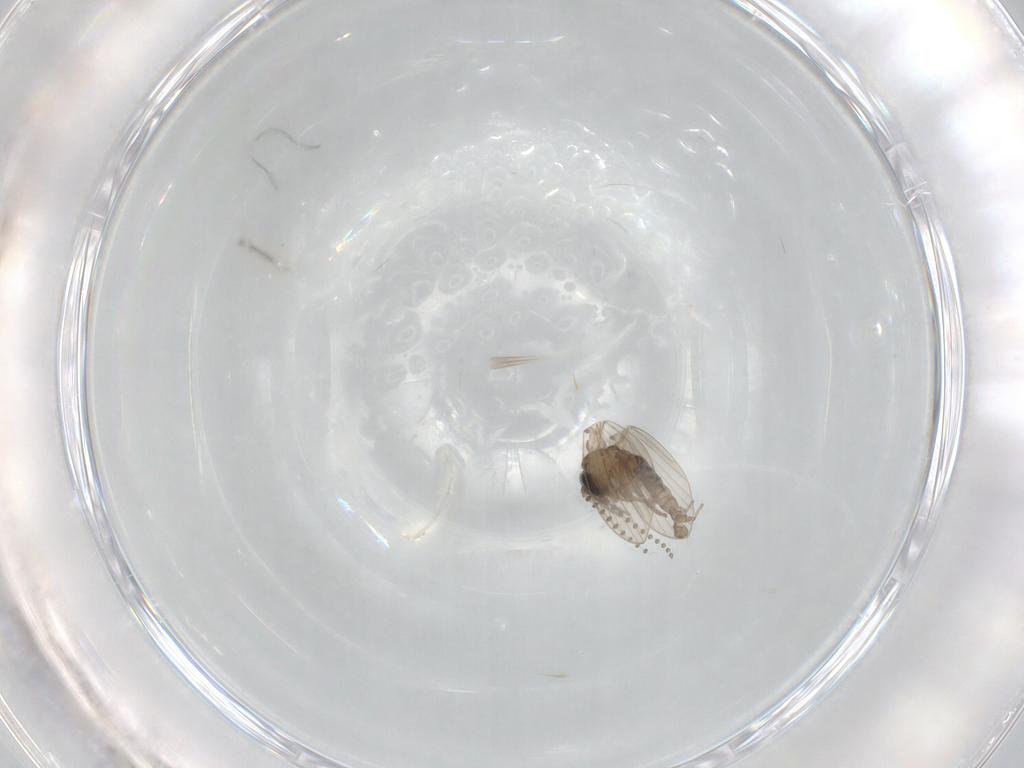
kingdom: Animalia
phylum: Arthropoda
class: Insecta
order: Diptera
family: Psychodidae
